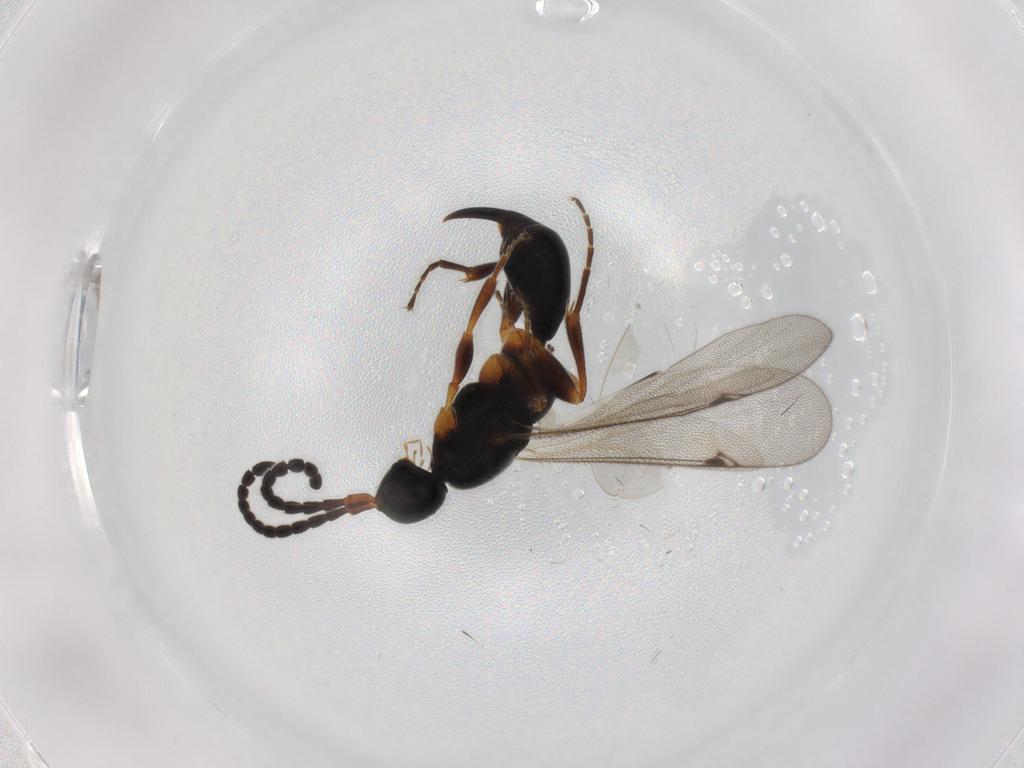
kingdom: Animalia
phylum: Arthropoda
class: Insecta
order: Hymenoptera
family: Proctotrupidae
